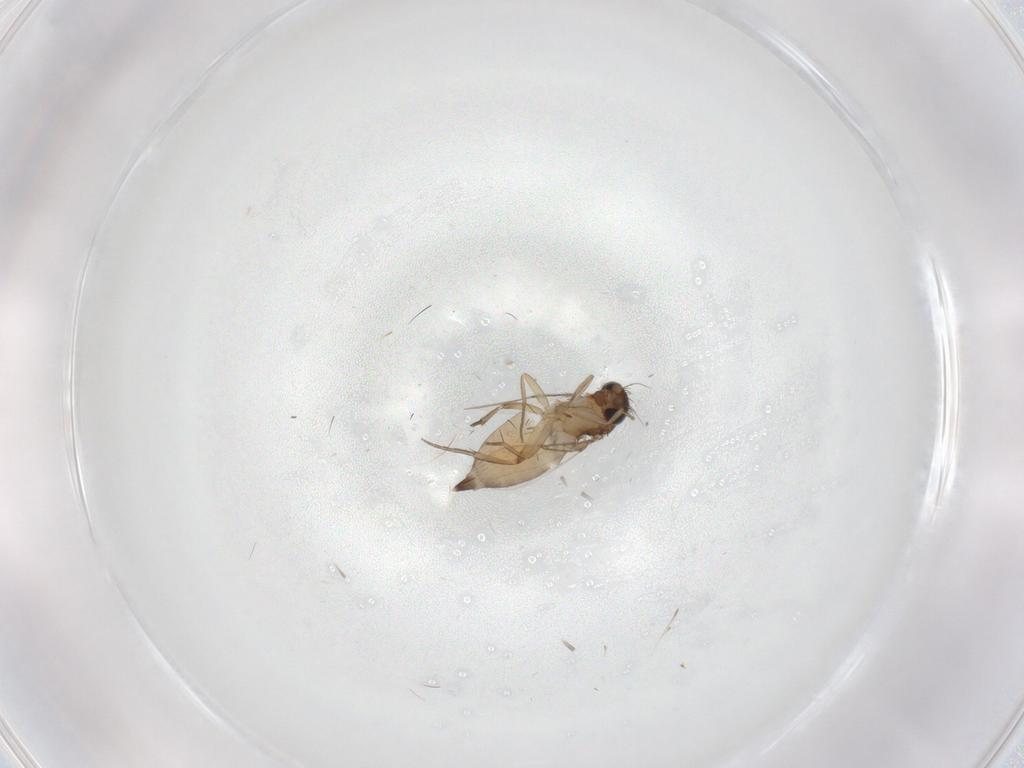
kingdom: Animalia
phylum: Arthropoda
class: Insecta
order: Diptera
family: Phoridae
